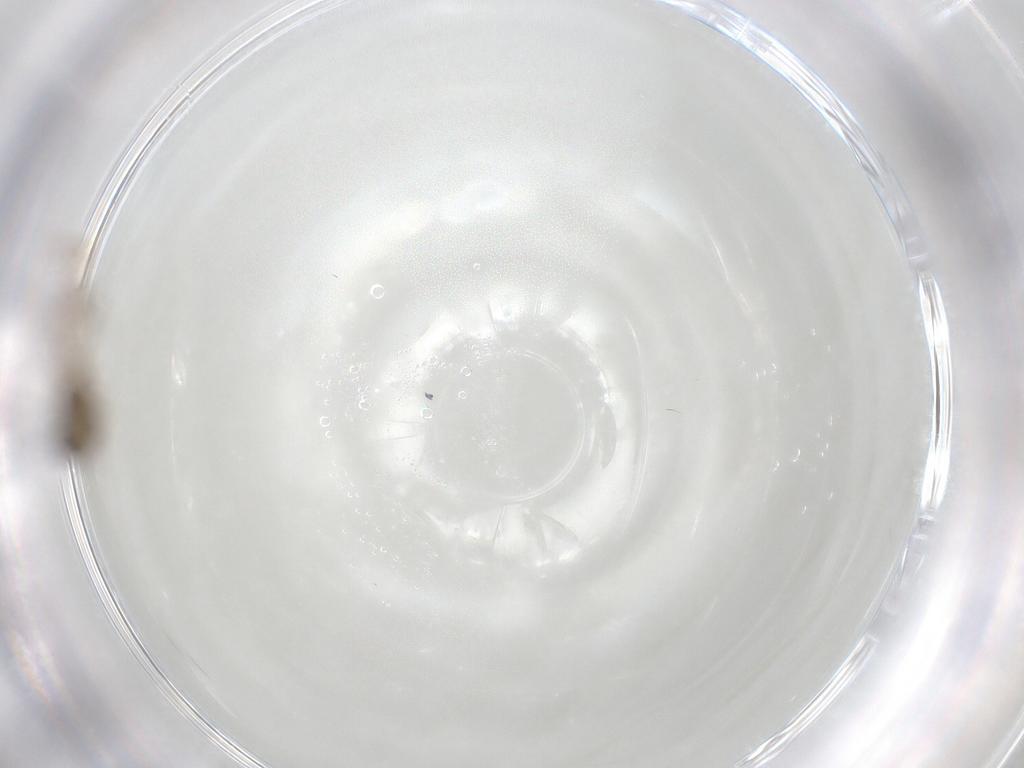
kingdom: Animalia
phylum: Arthropoda
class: Insecta
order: Diptera
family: Chironomidae
